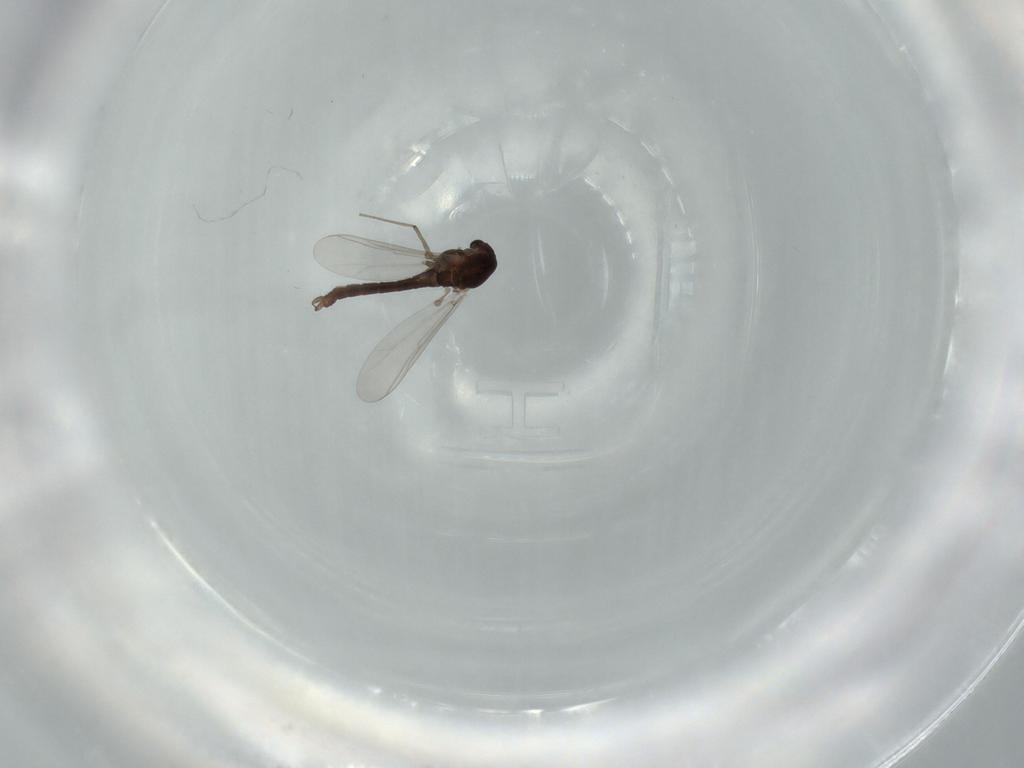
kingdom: Animalia
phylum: Arthropoda
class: Insecta
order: Diptera
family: Chironomidae
